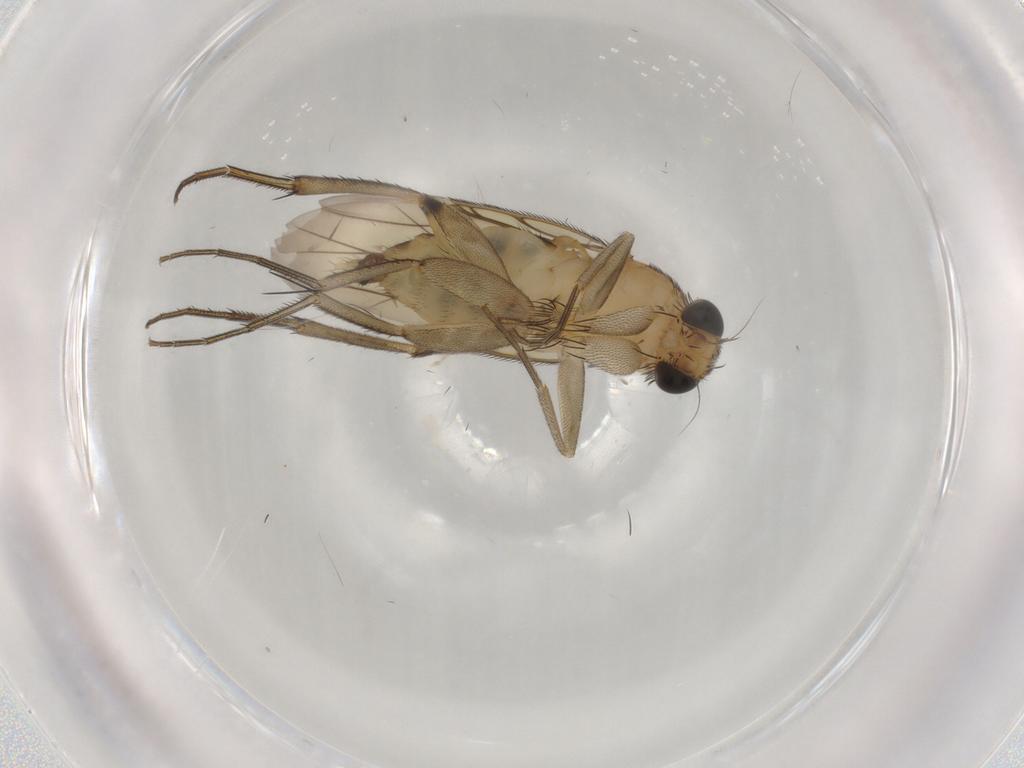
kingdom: Animalia
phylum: Arthropoda
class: Insecta
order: Diptera
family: Phoridae
